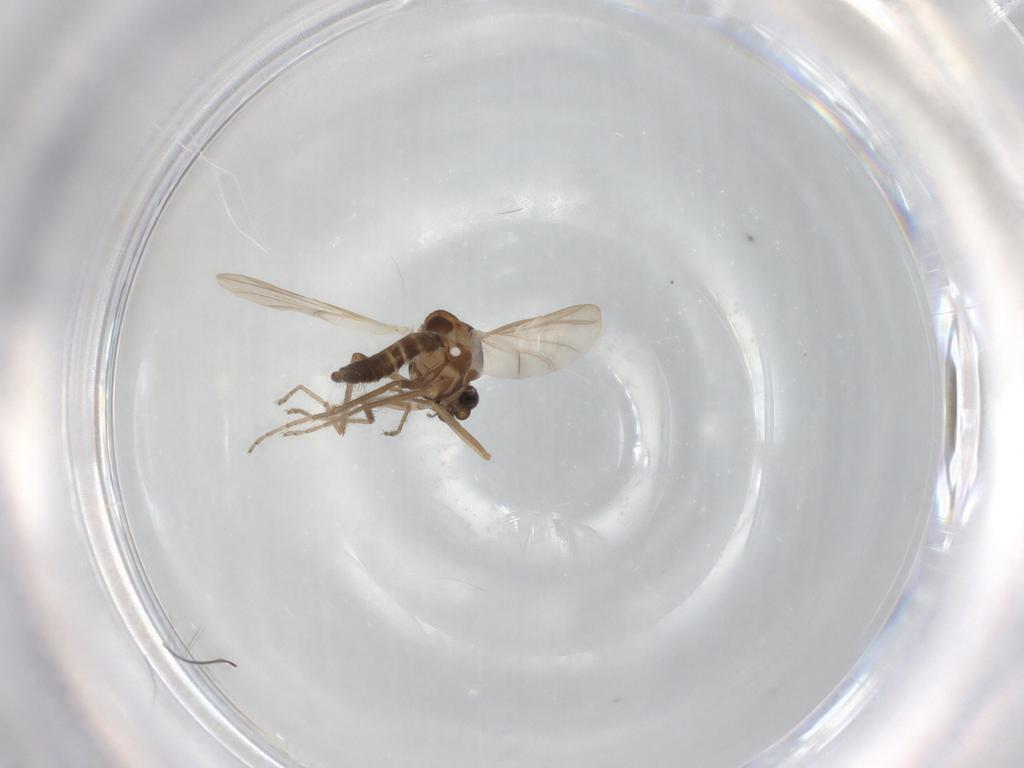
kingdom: Animalia
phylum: Arthropoda
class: Insecta
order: Diptera
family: Ceratopogonidae
